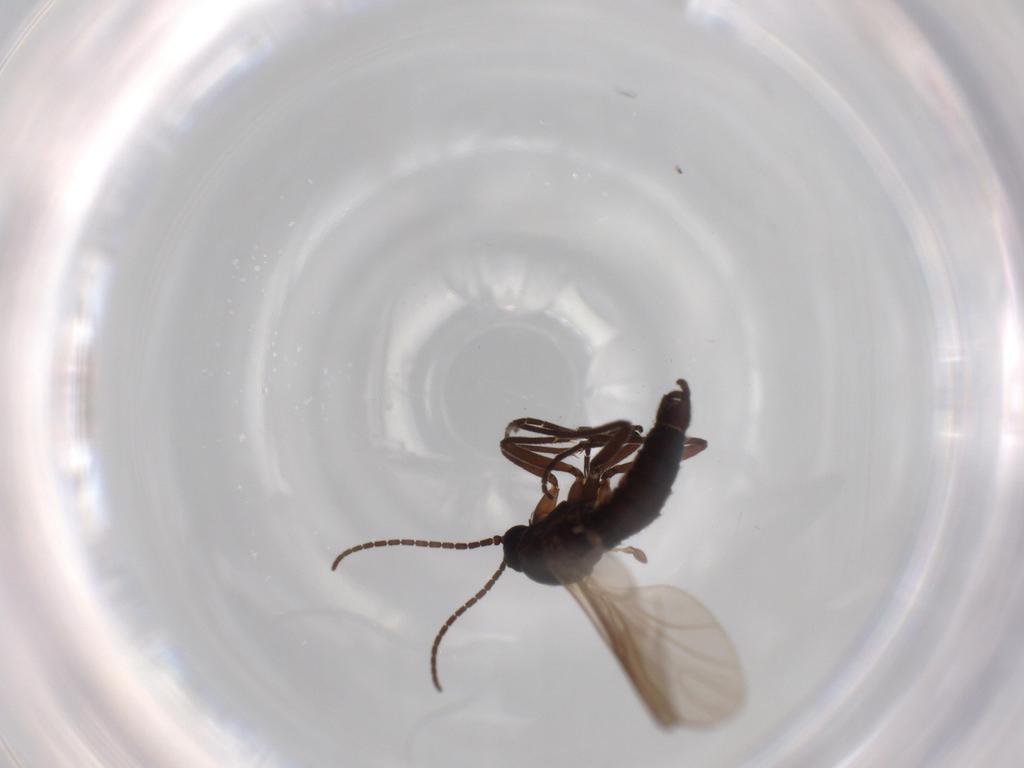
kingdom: Animalia
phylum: Arthropoda
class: Insecta
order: Diptera
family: Sciaridae
